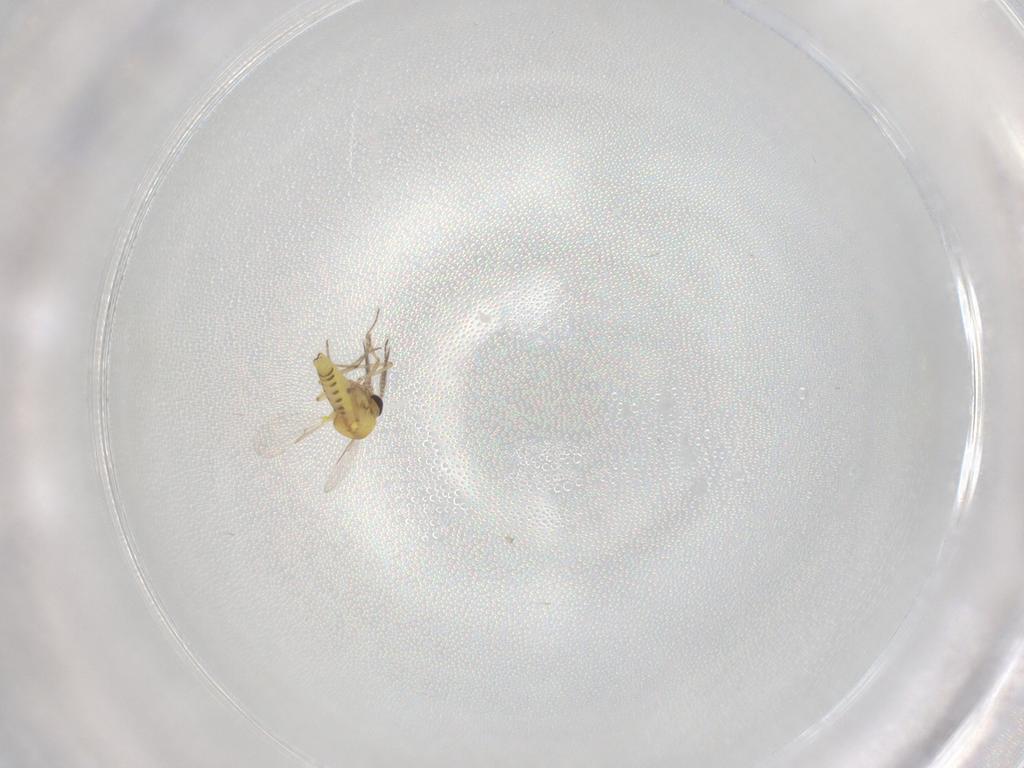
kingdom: Animalia
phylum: Arthropoda
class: Insecta
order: Diptera
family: Phoridae
